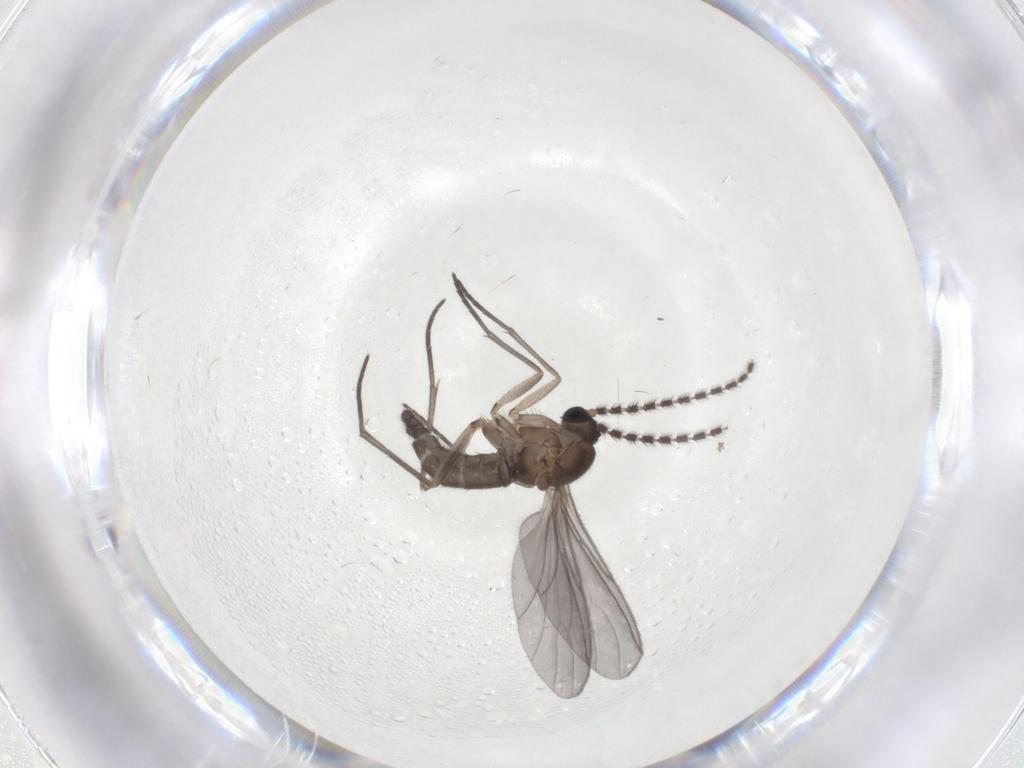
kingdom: Animalia
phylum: Arthropoda
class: Insecta
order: Diptera
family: Sciaridae
